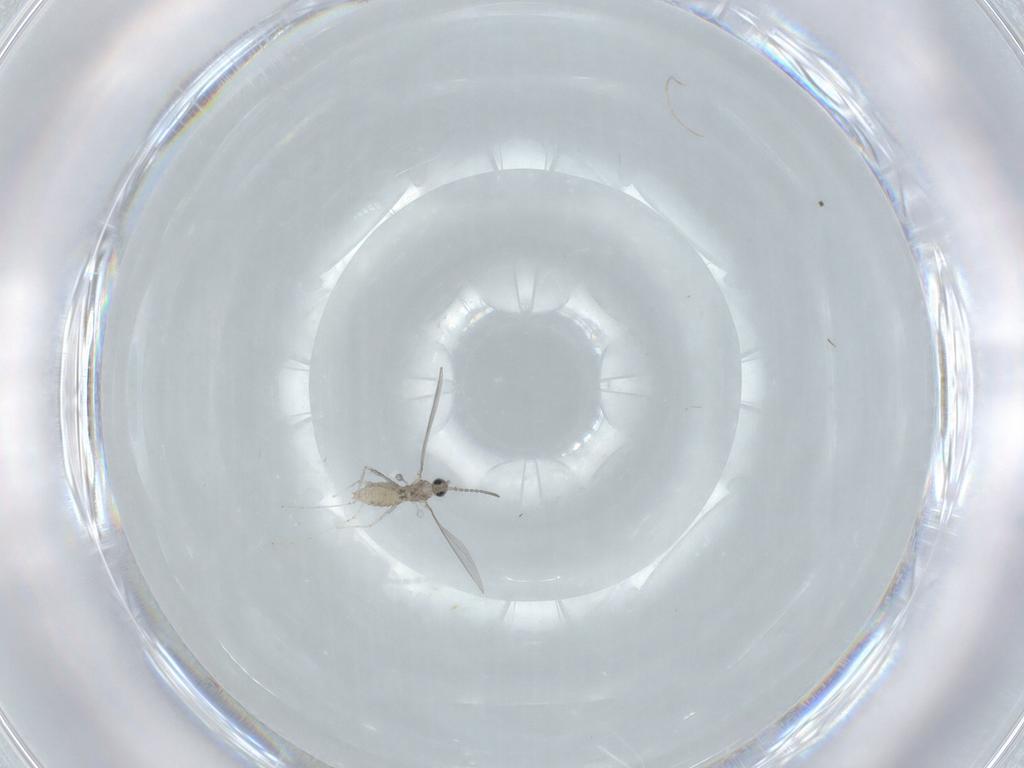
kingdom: Animalia
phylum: Arthropoda
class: Insecta
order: Diptera
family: Cecidomyiidae
